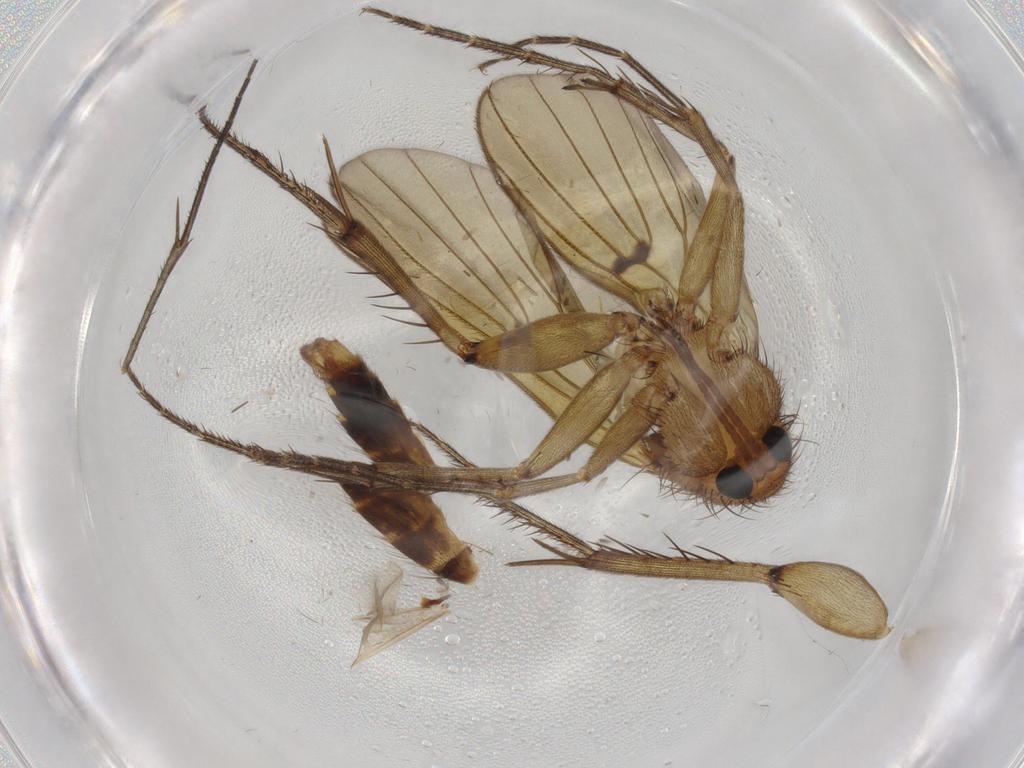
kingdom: Animalia
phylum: Arthropoda
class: Insecta
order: Diptera
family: Mycetophilidae
